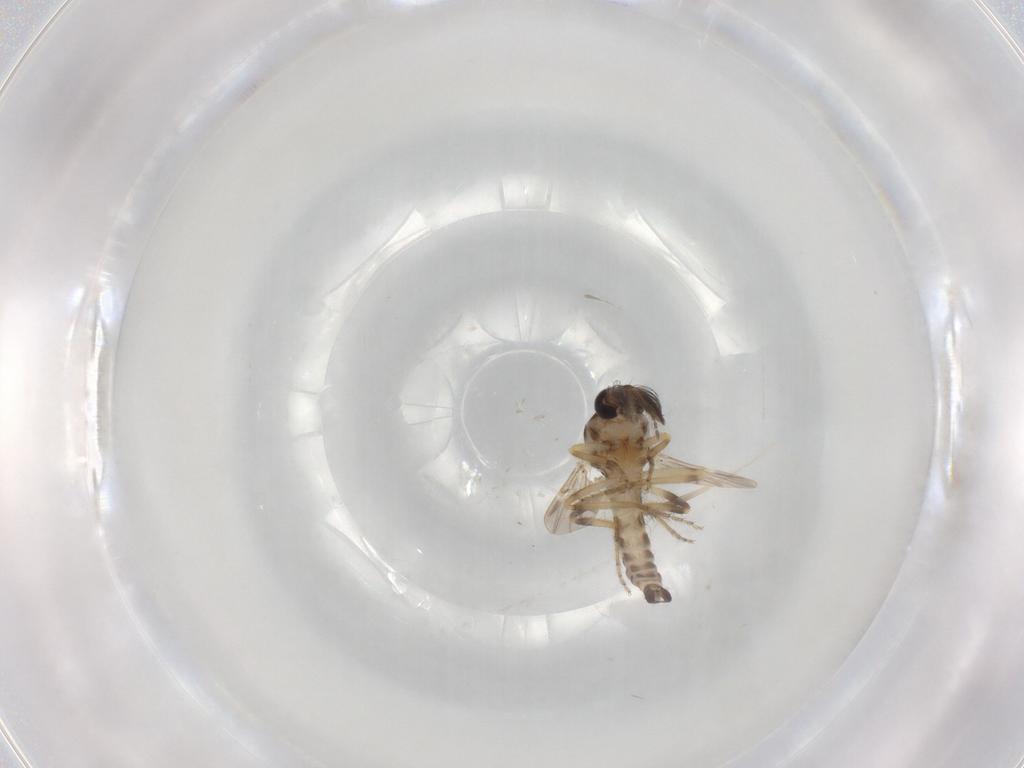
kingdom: Animalia
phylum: Arthropoda
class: Insecta
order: Diptera
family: Ceratopogonidae
